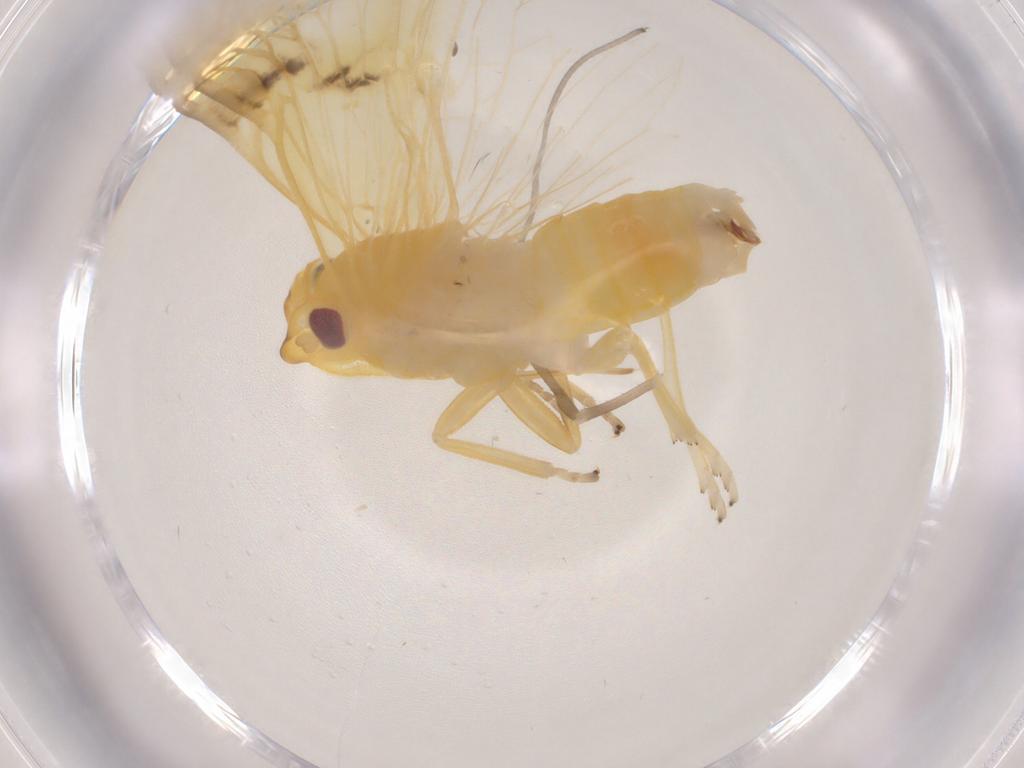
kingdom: Animalia
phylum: Arthropoda
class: Insecta
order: Hemiptera
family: Cixiidae
